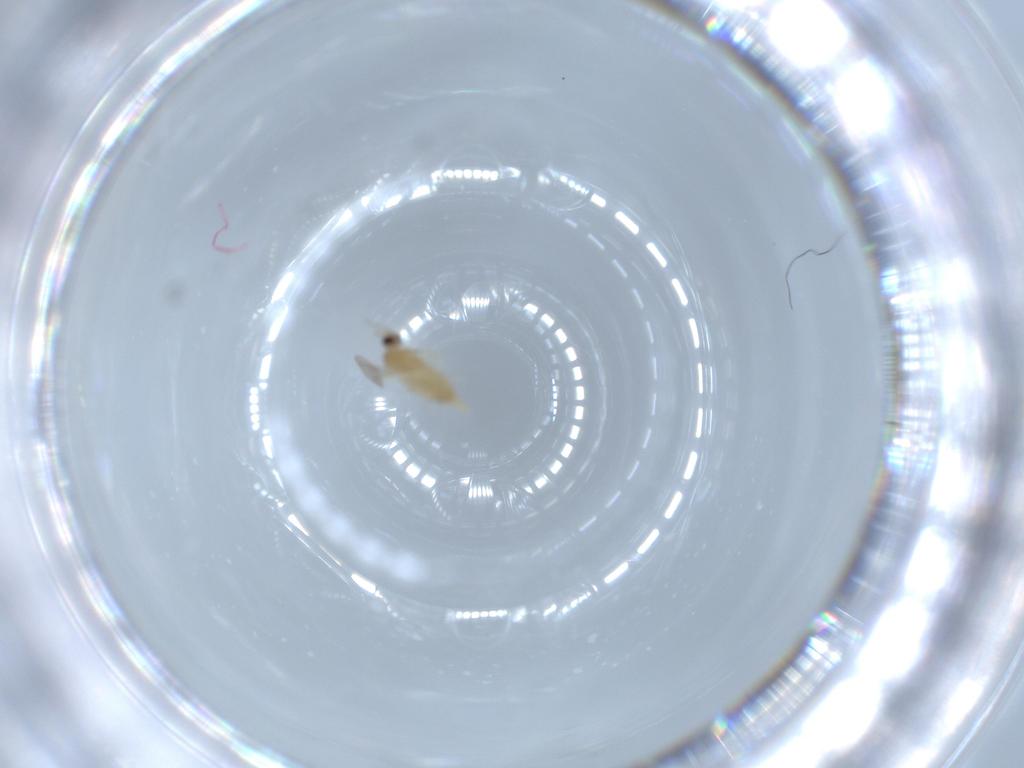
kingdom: Animalia
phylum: Arthropoda
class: Insecta
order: Diptera
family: Cecidomyiidae
